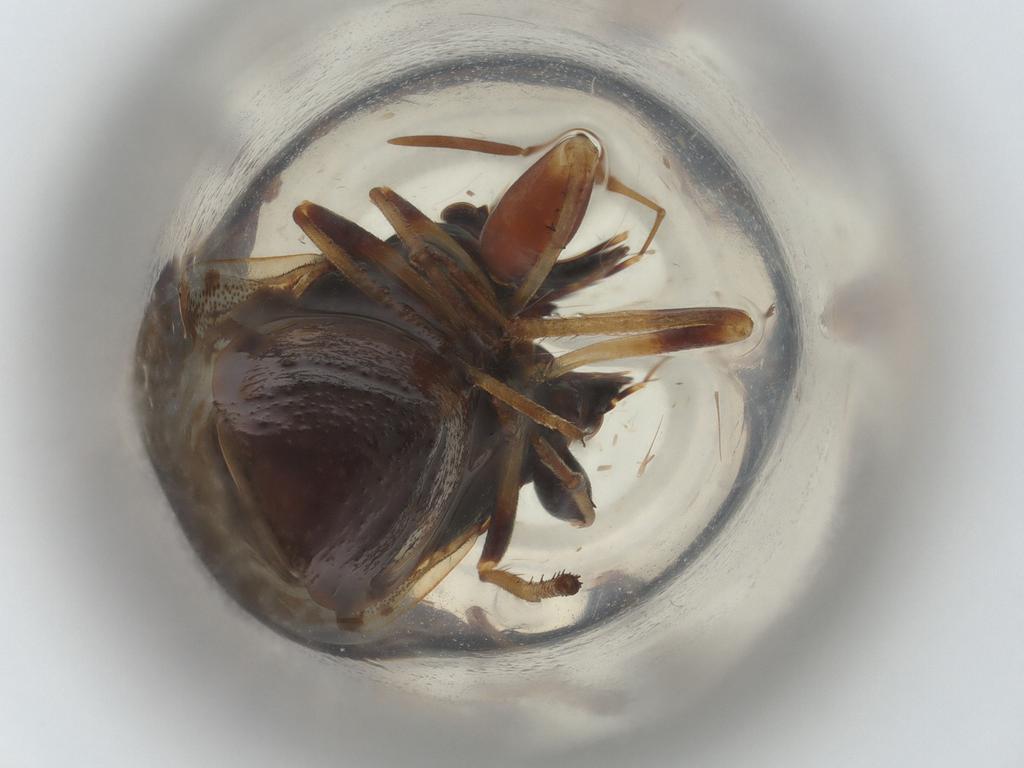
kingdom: Animalia
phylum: Arthropoda
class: Insecta
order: Hemiptera
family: Rhyparochromidae
